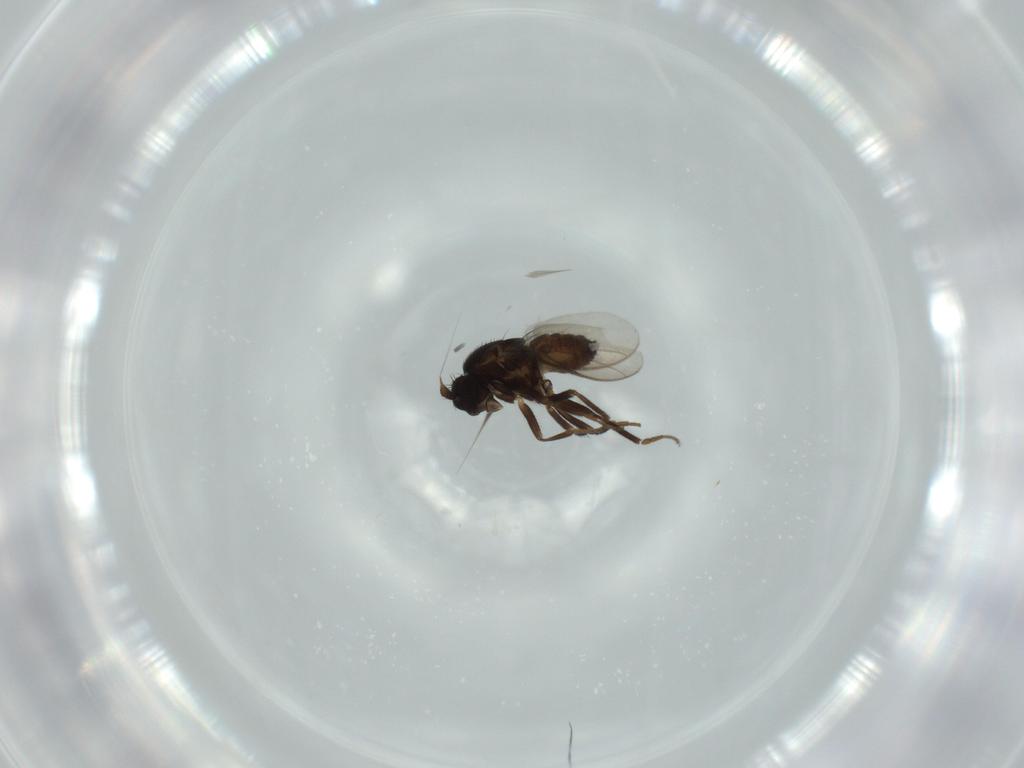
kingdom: Animalia
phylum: Arthropoda
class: Insecta
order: Diptera
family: Sphaeroceridae
